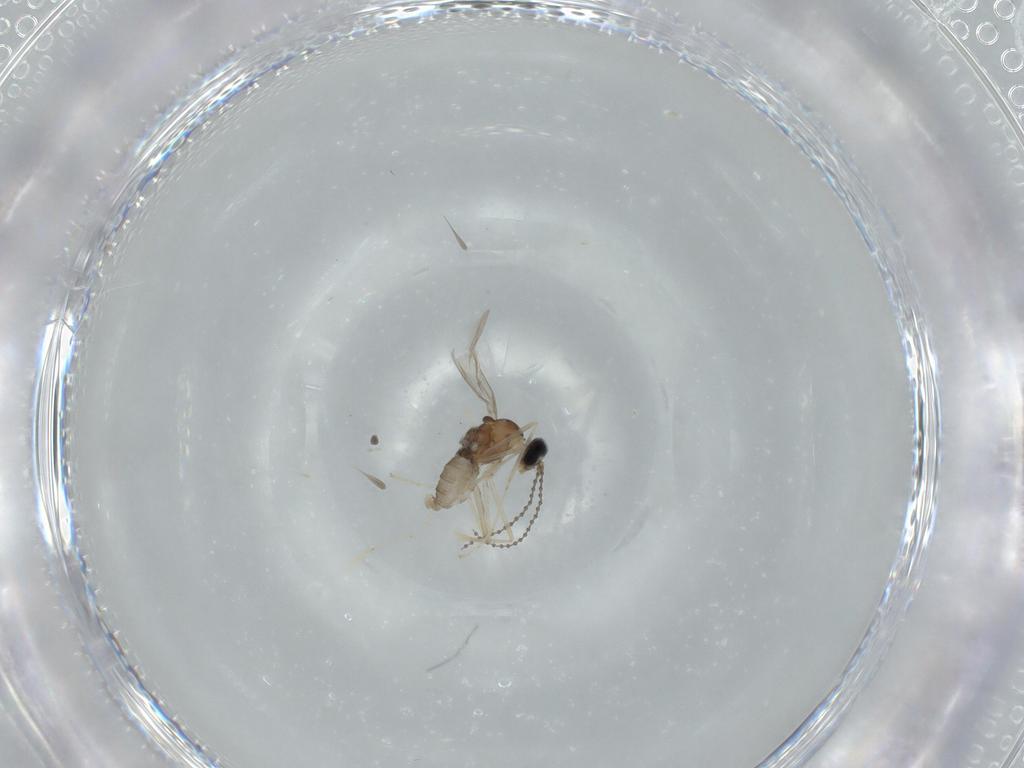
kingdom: Animalia
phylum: Arthropoda
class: Insecta
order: Diptera
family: Cecidomyiidae
